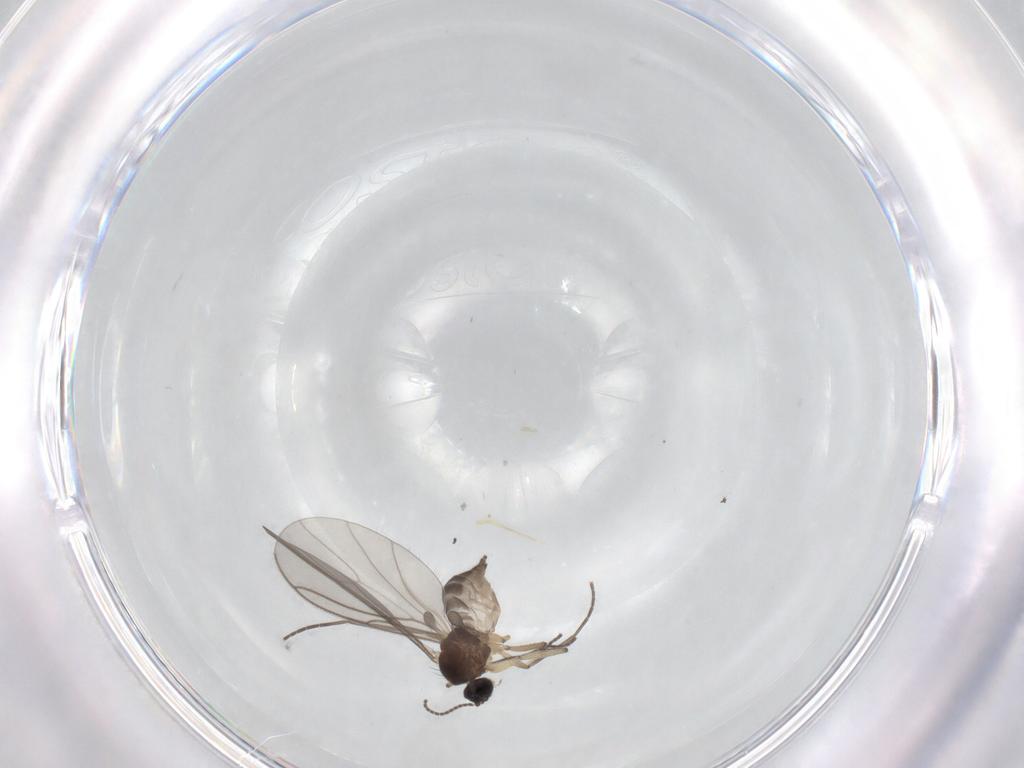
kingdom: Animalia
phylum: Arthropoda
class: Insecta
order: Diptera
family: Sciaridae
